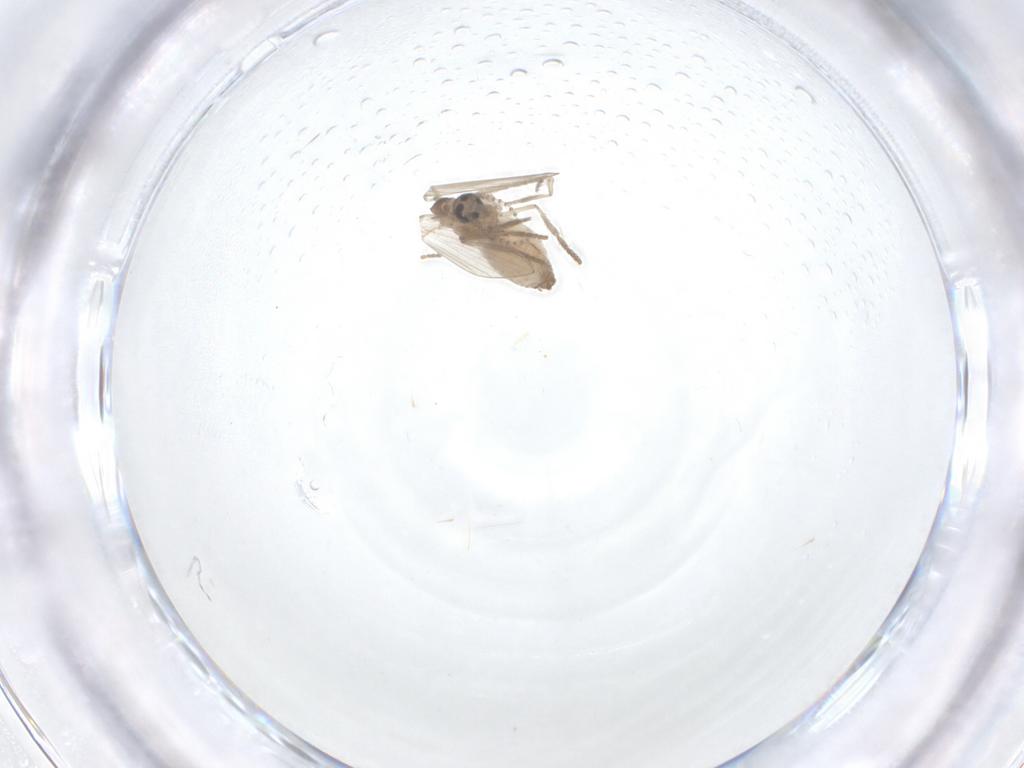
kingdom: Animalia
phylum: Arthropoda
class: Insecta
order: Diptera
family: Psychodidae
